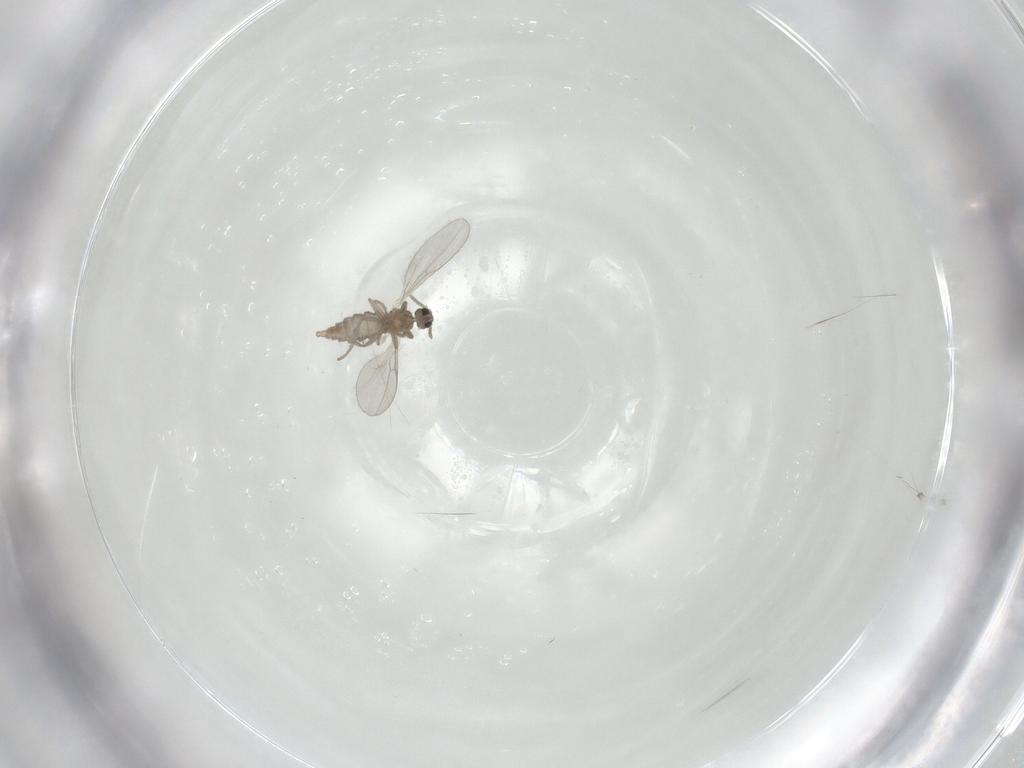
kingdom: Animalia
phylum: Arthropoda
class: Insecta
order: Diptera
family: Cecidomyiidae
